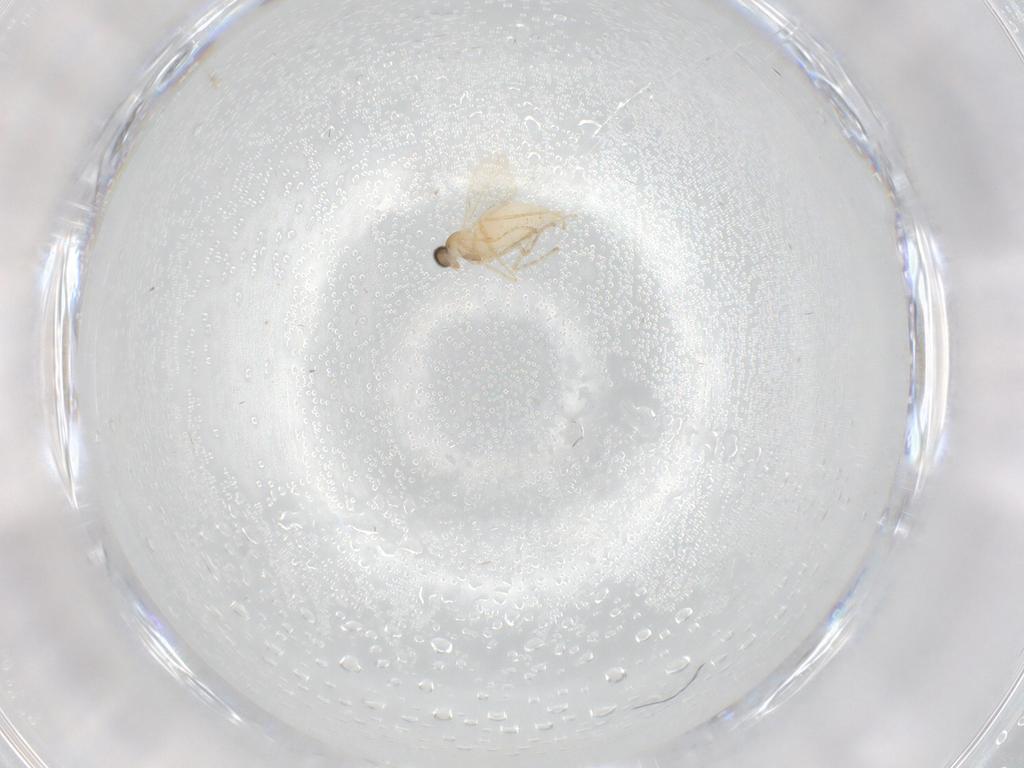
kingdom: Animalia
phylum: Arthropoda
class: Insecta
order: Diptera
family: Cecidomyiidae
